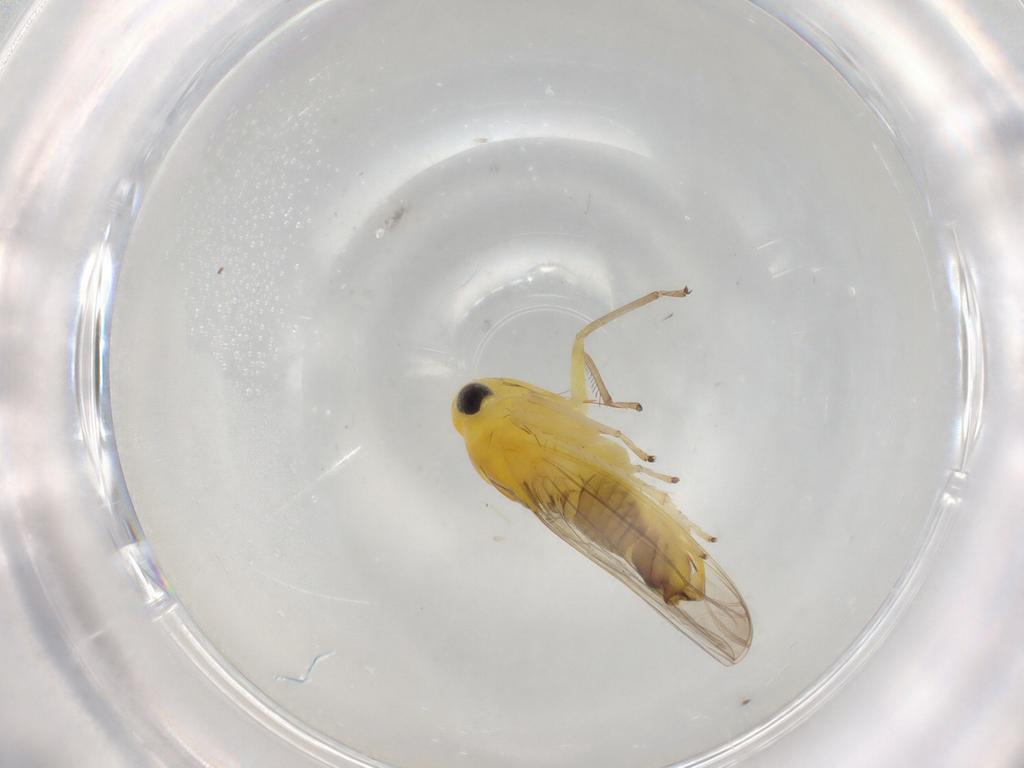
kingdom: Animalia
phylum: Arthropoda
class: Insecta
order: Hemiptera
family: Cicadellidae
